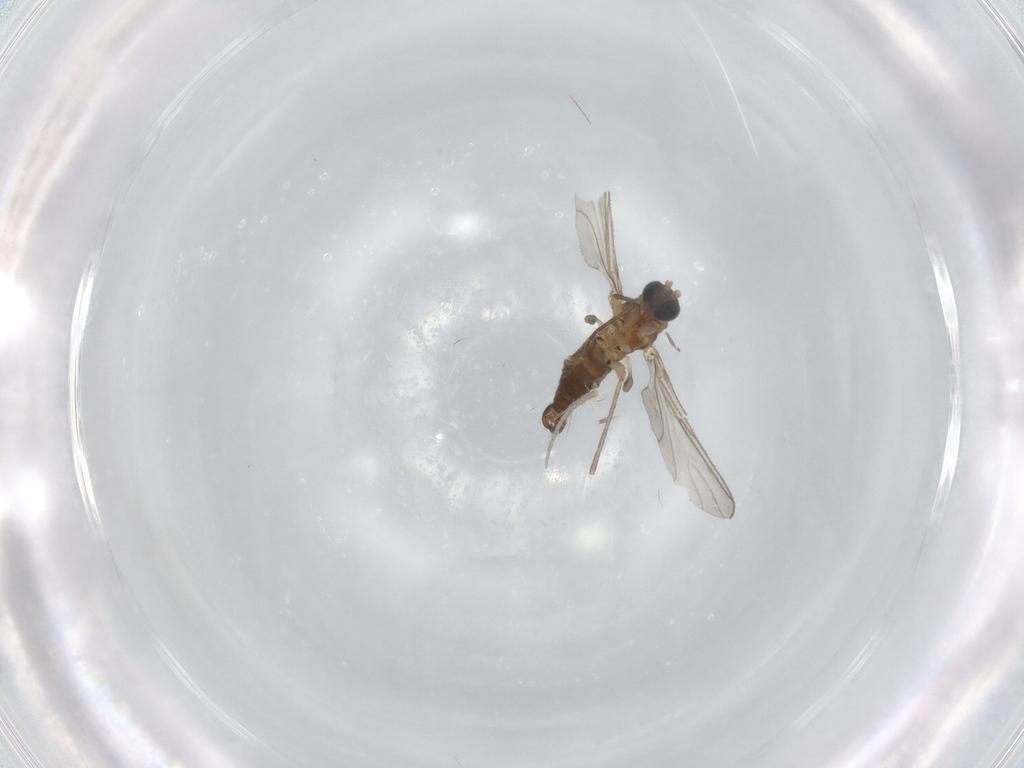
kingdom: Animalia
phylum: Arthropoda
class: Insecta
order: Diptera
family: Sciaridae
